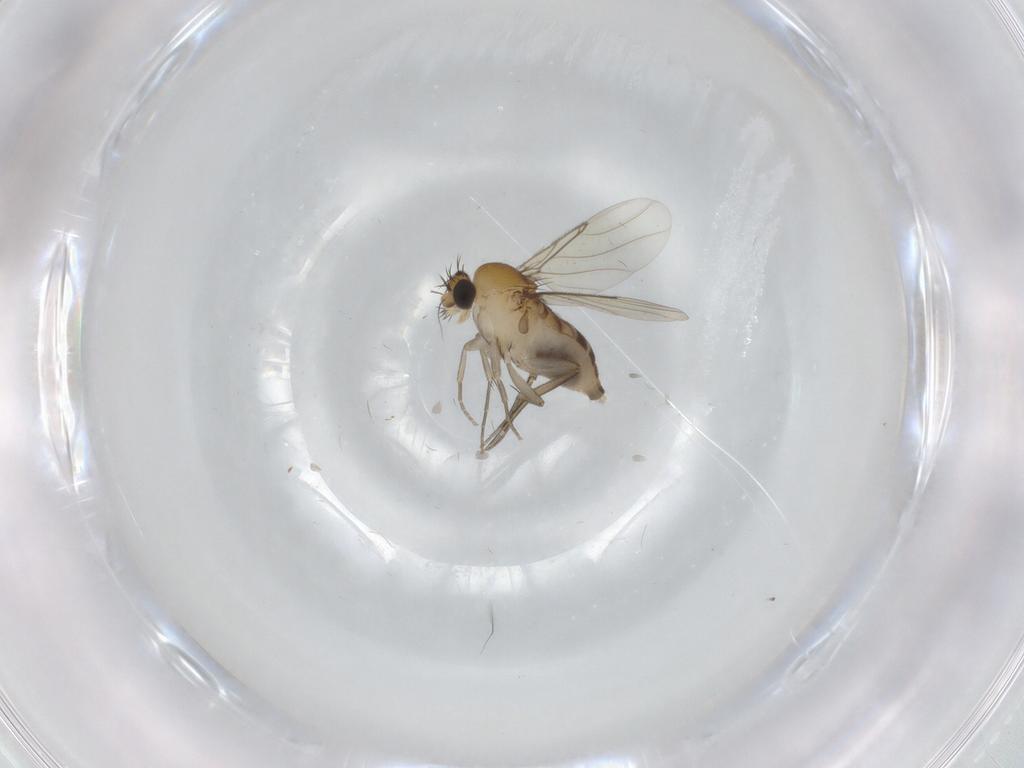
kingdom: Animalia
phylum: Arthropoda
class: Insecta
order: Diptera
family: Phoridae
